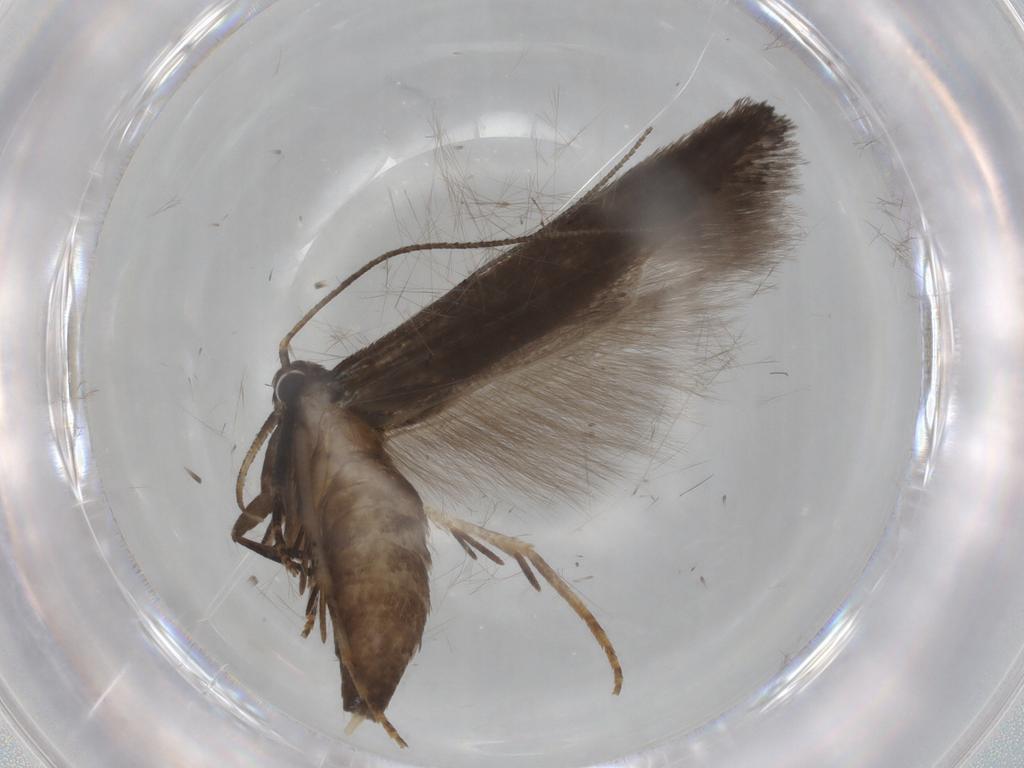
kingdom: Animalia
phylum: Arthropoda
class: Insecta
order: Lepidoptera
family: Gelechiidae
